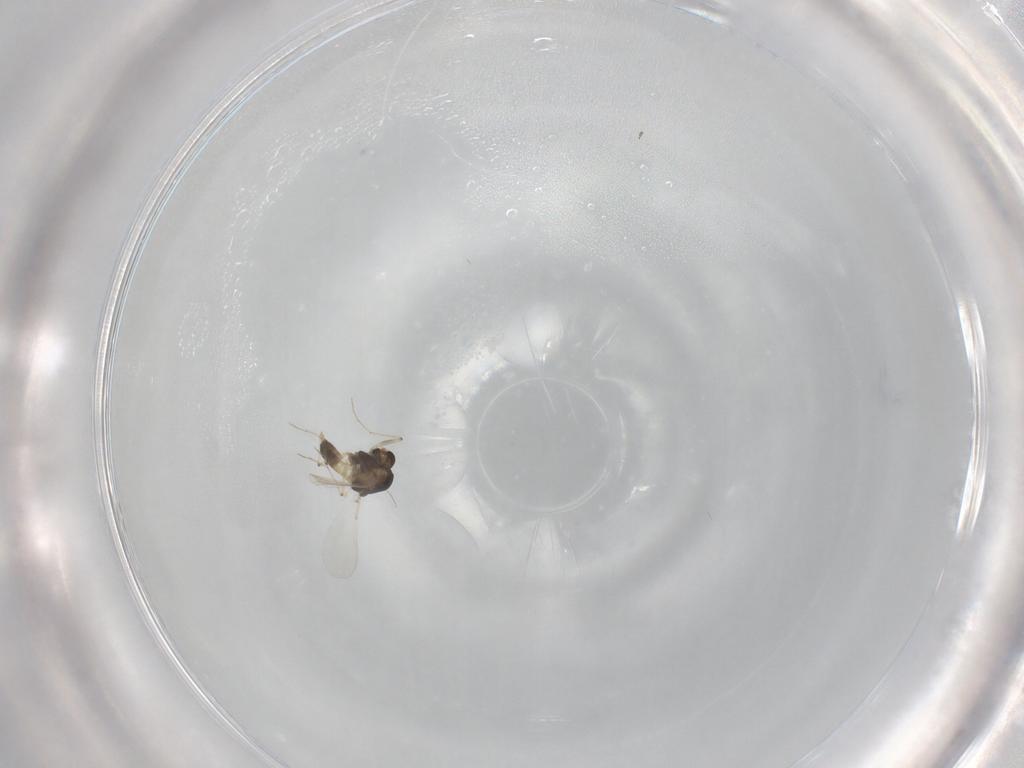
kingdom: Animalia
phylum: Arthropoda
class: Insecta
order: Diptera
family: Chironomidae
